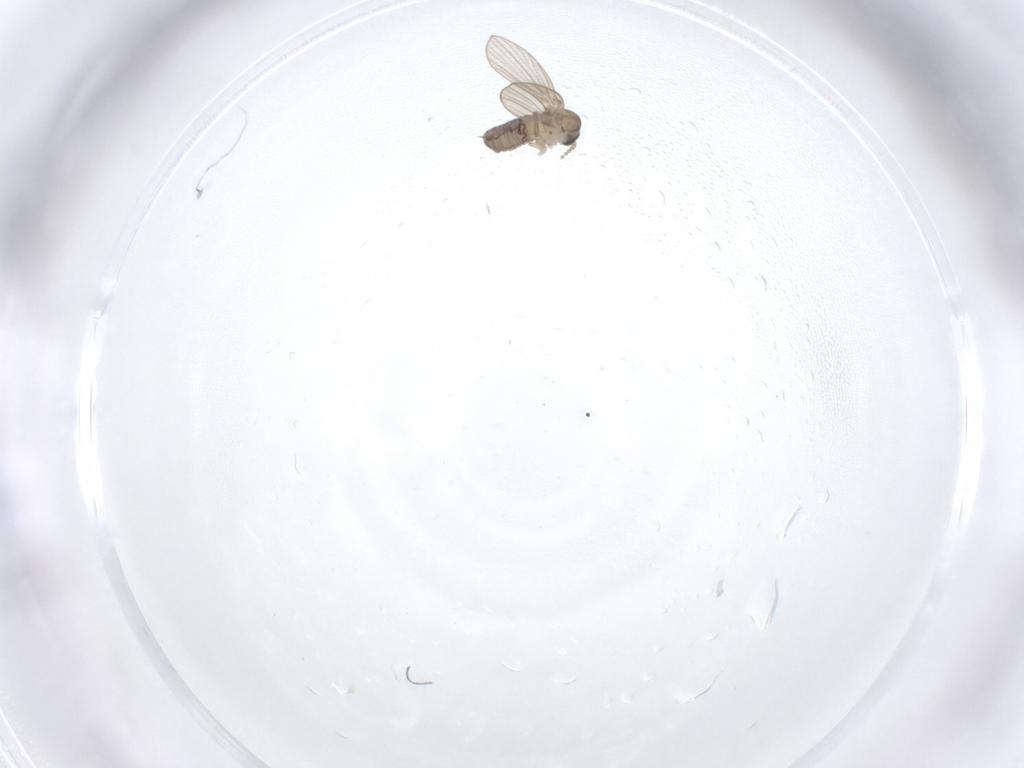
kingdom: Animalia
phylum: Arthropoda
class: Insecta
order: Diptera
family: Psychodidae
